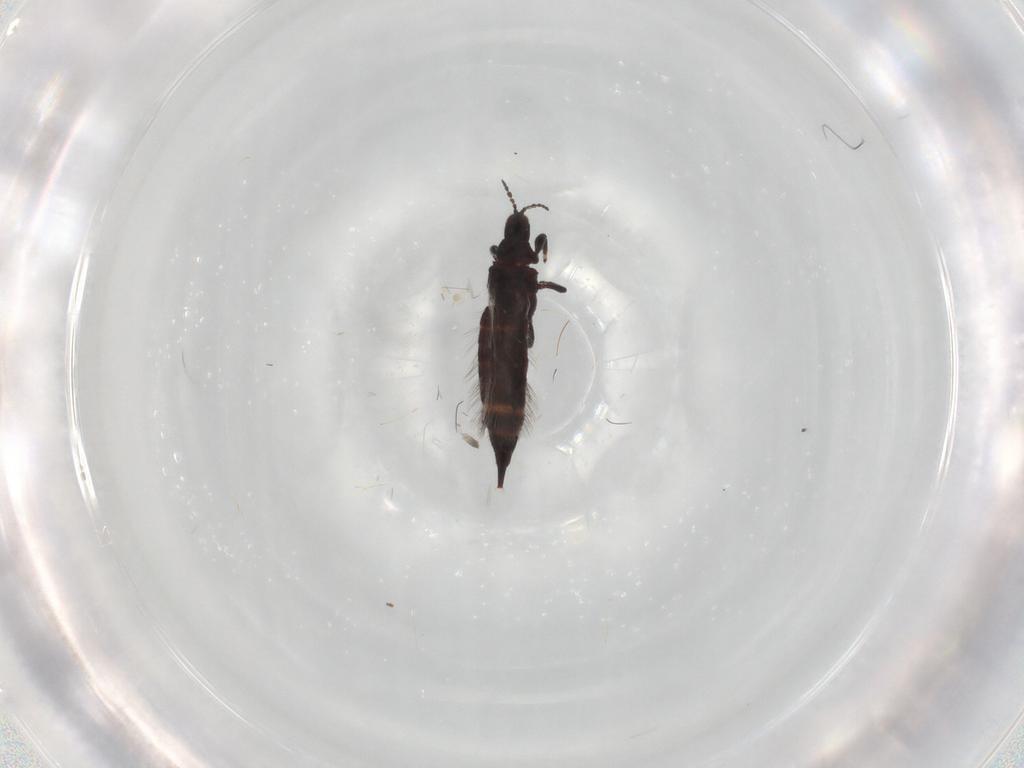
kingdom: Animalia
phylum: Arthropoda
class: Insecta
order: Thysanoptera
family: Phlaeothripidae
